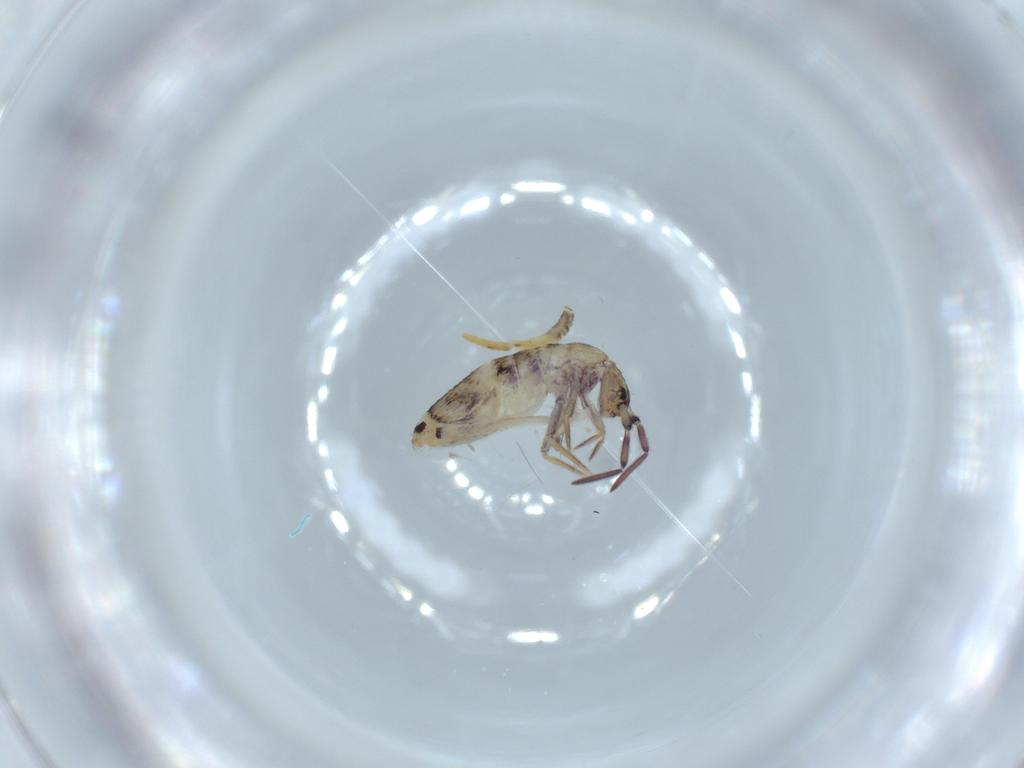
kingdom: Animalia
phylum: Arthropoda
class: Collembola
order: Entomobryomorpha
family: Entomobryidae
